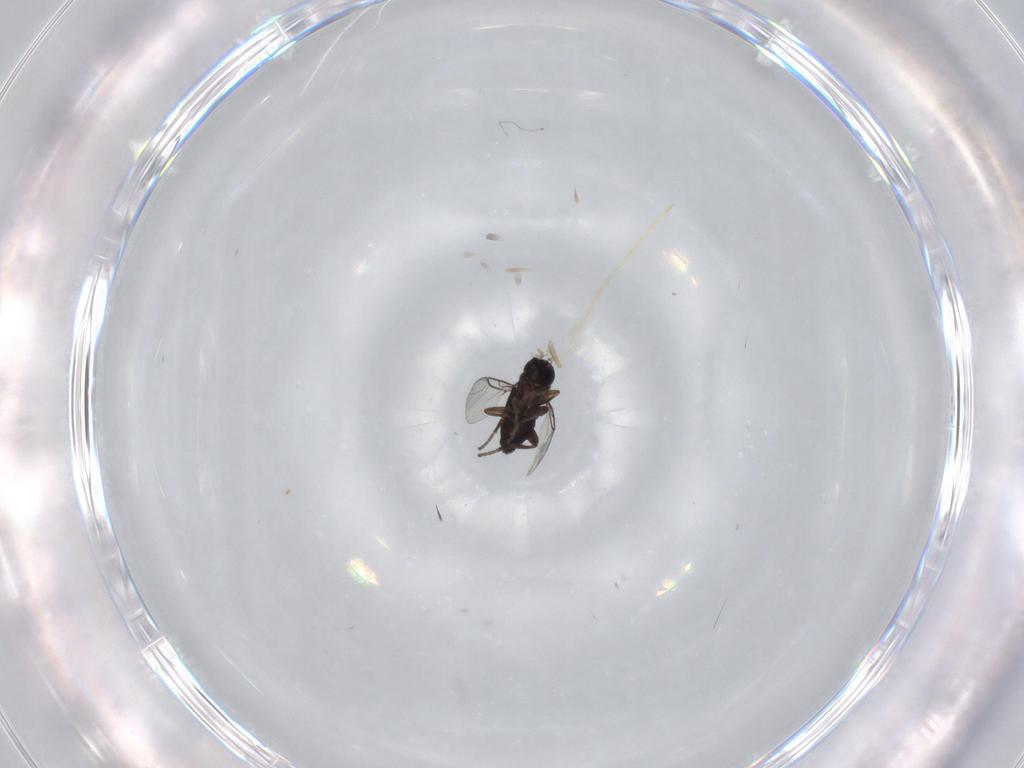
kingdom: Animalia
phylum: Arthropoda
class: Insecta
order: Diptera
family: Phoridae
